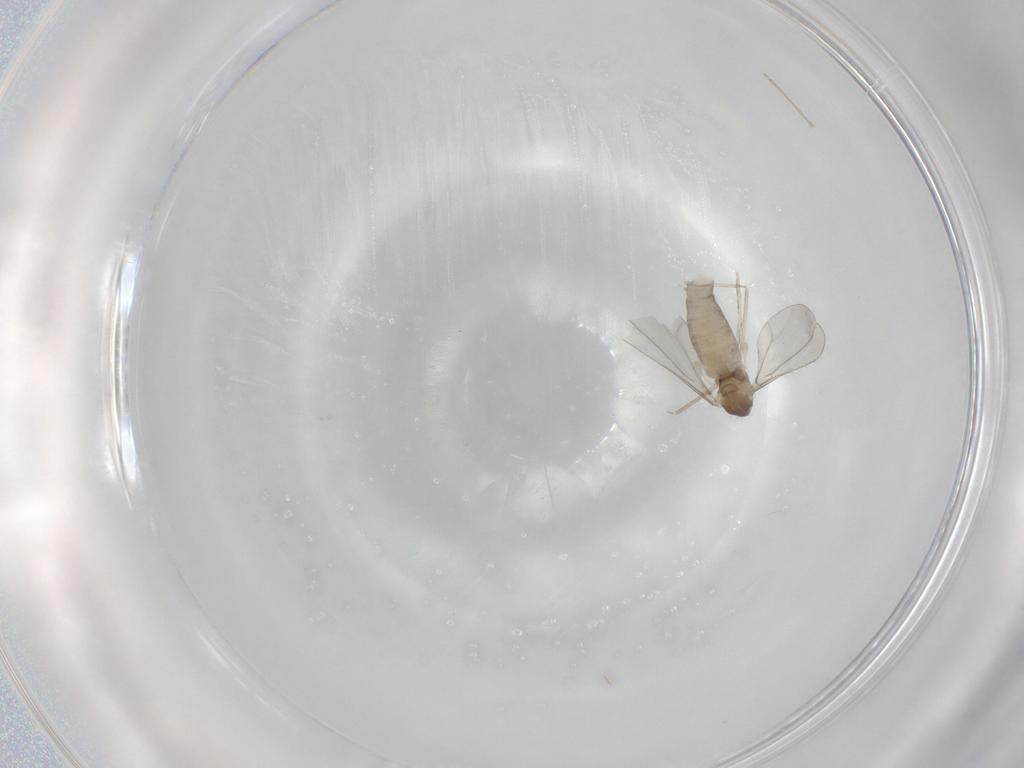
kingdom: Animalia
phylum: Arthropoda
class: Insecta
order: Diptera
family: Cecidomyiidae
